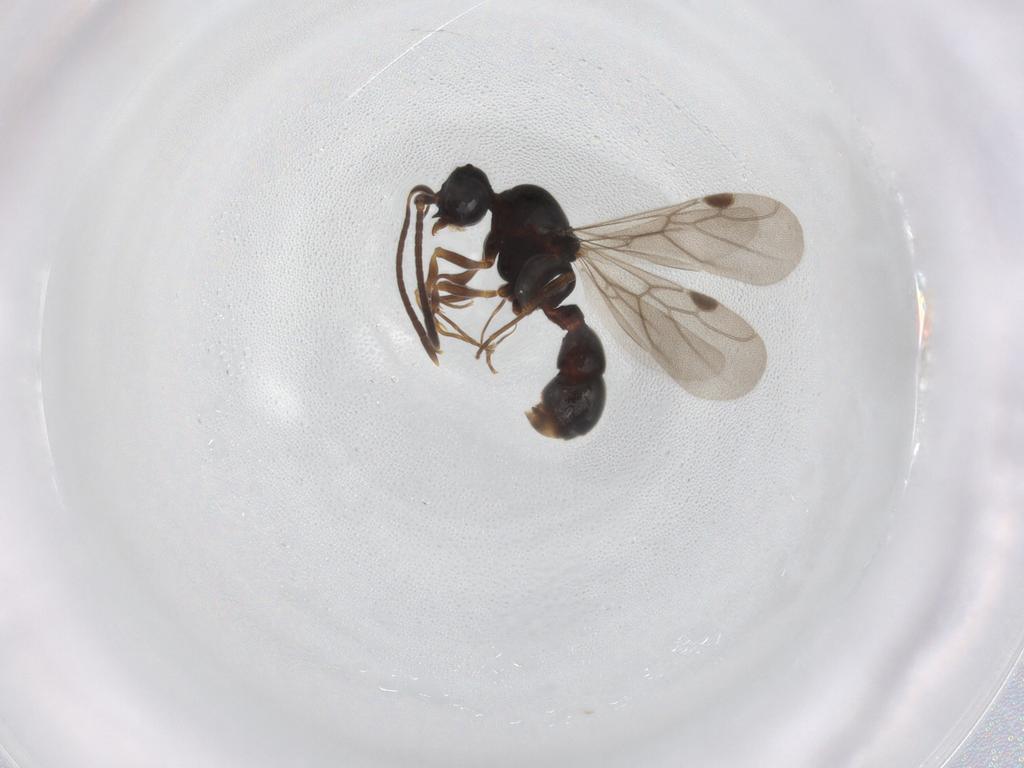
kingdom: Animalia
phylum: Arthropoda
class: Insecta
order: Hymenoptera
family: Formicidae
